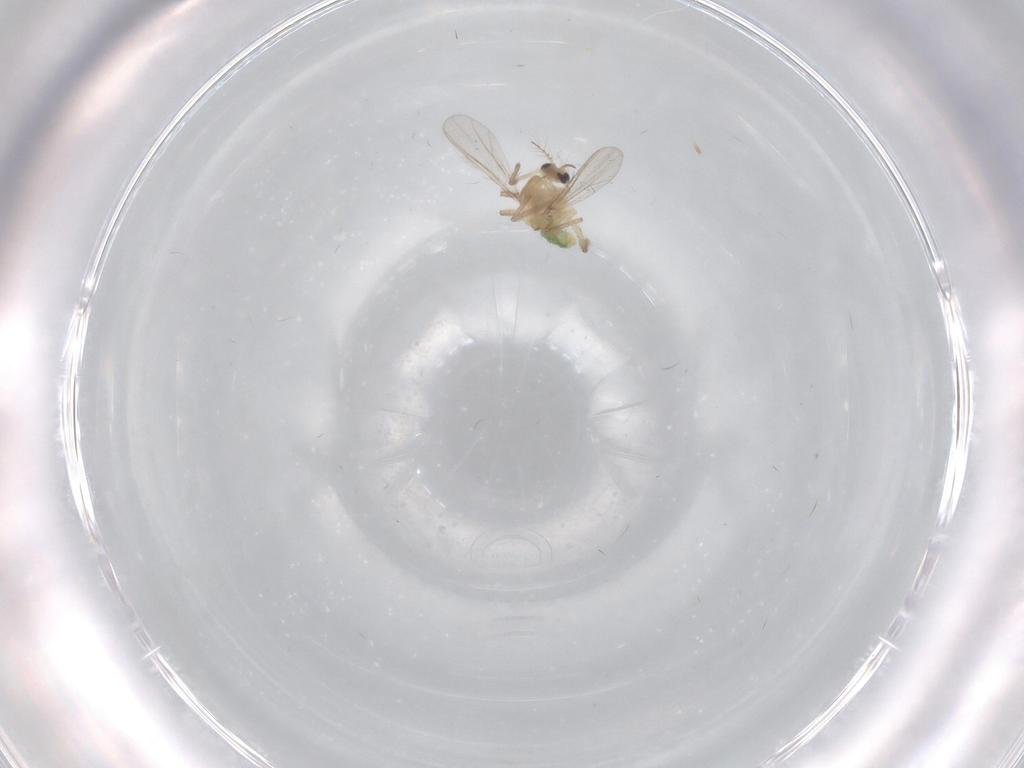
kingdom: Animalia
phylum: Arthropoda
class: Insecta
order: Diptera
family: Chironomidae
